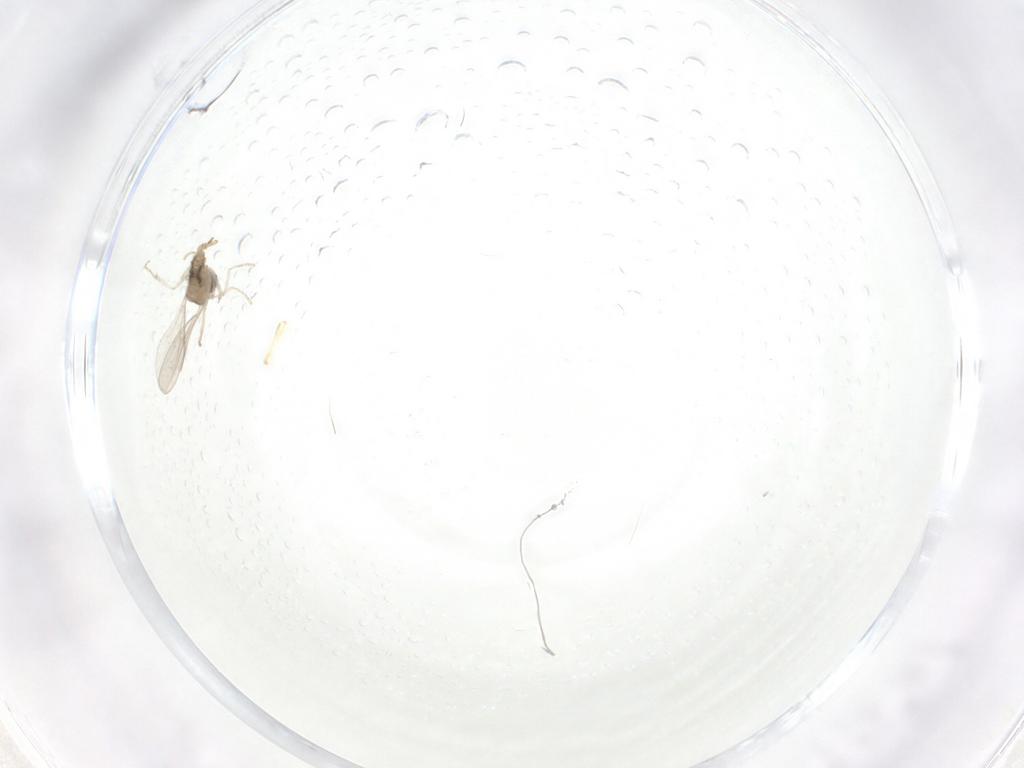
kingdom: Animalia
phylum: Arthropoda
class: Insecta
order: Diptera
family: Cecidomyiidae
